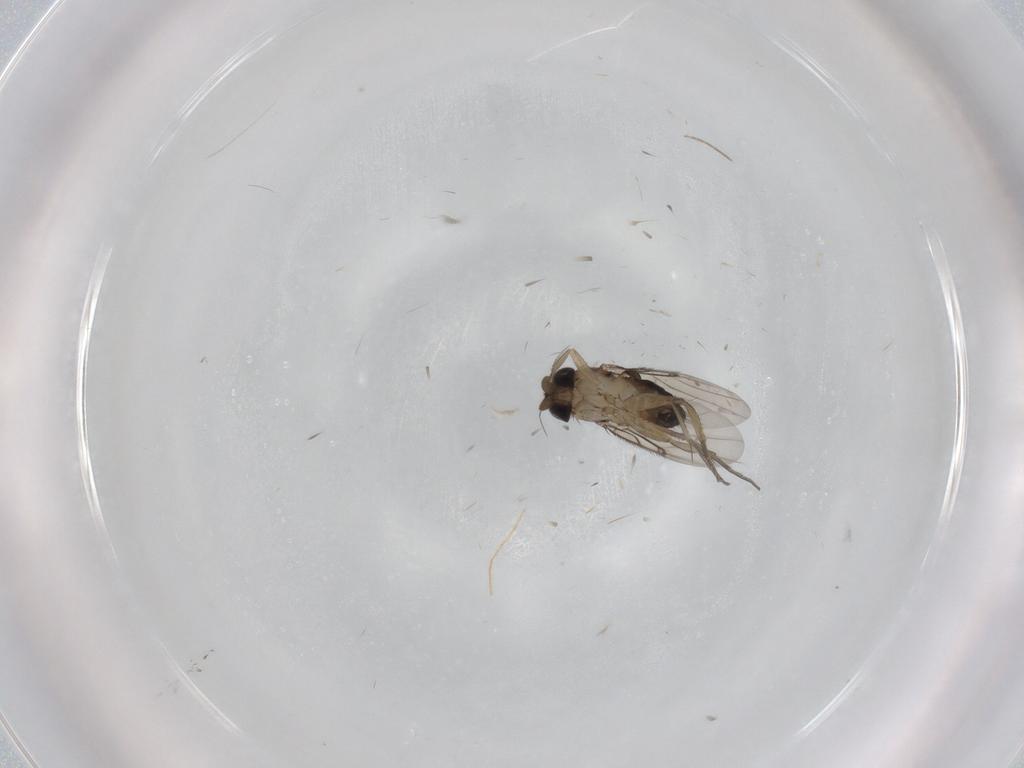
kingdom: Animalia
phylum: Arthropoda
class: Insecta
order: Diptera
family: Phoridae
